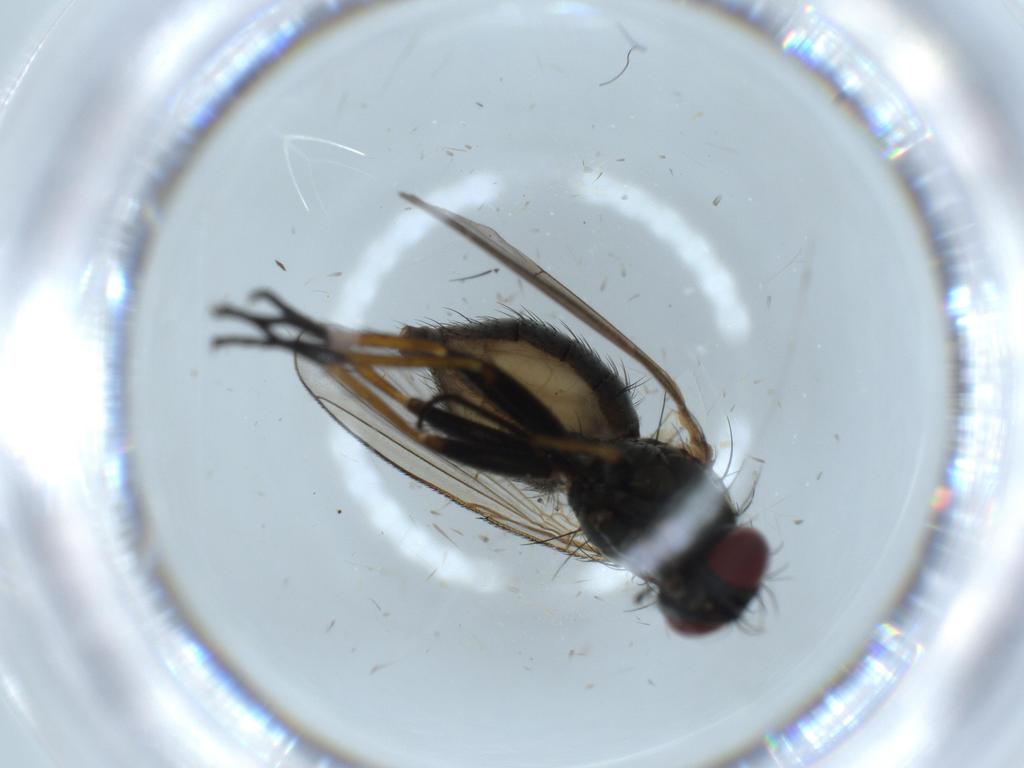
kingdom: Animalia
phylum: Arthropoda
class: Insecta
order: Diptera
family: Muscidae
